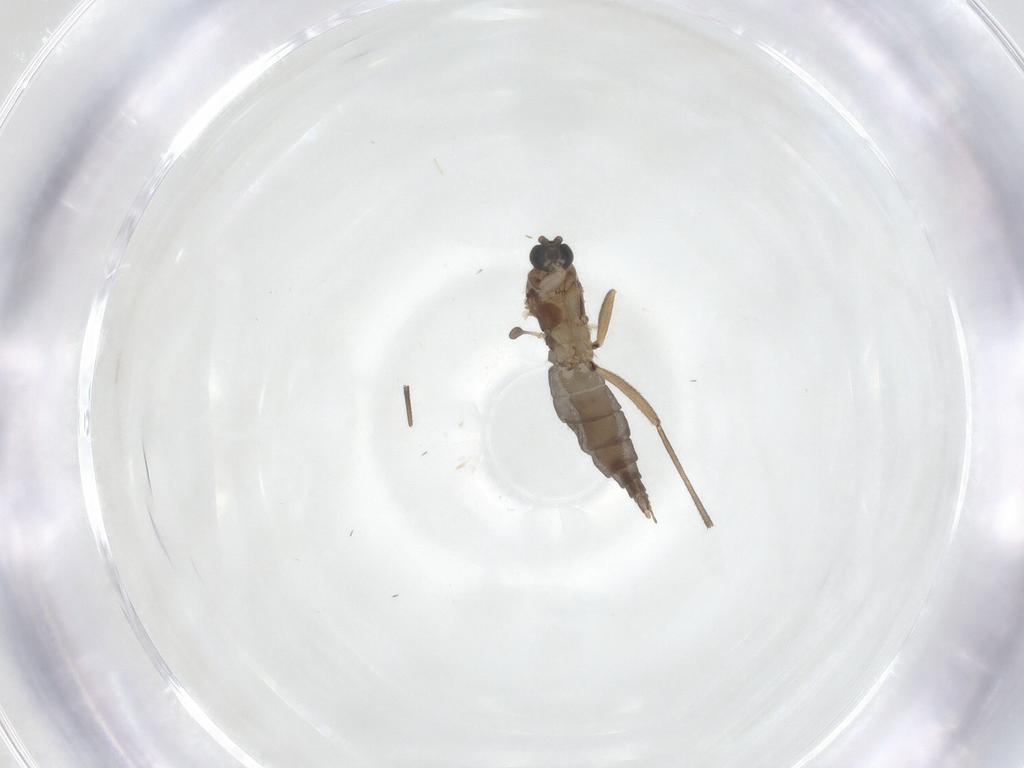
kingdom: Animalia
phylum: Arthropoda
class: Insecta
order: Diptera
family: Sciaridae
